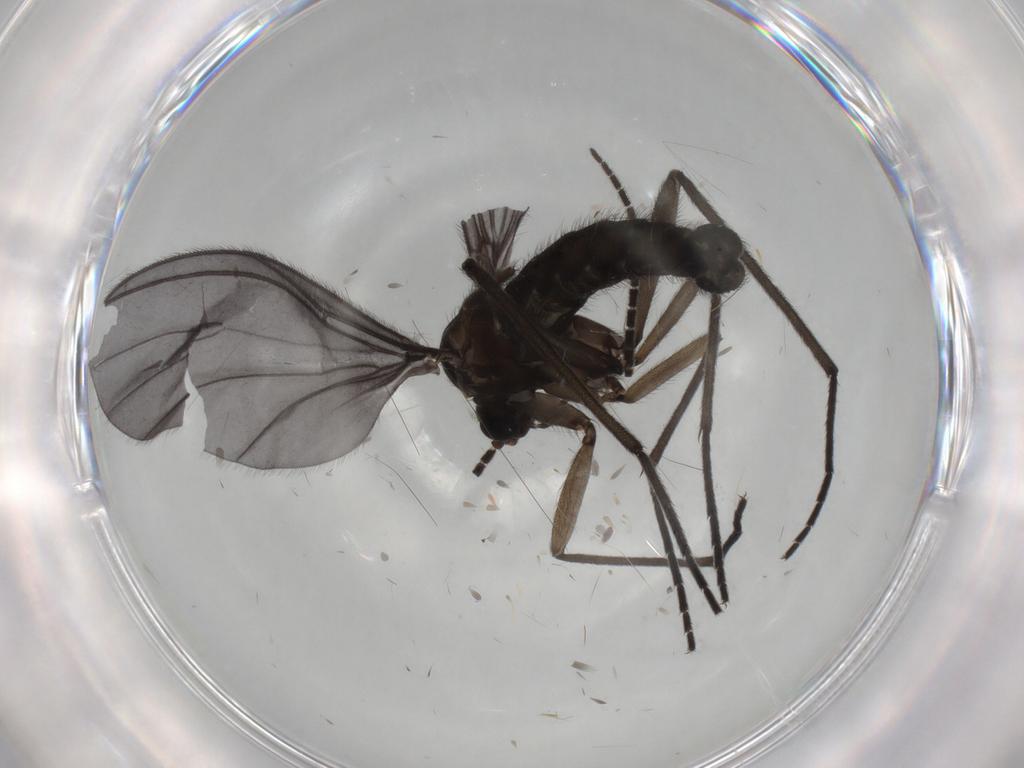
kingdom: Animalia
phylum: Arthropoda
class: Insecta
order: Diptera
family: Sciaridae
